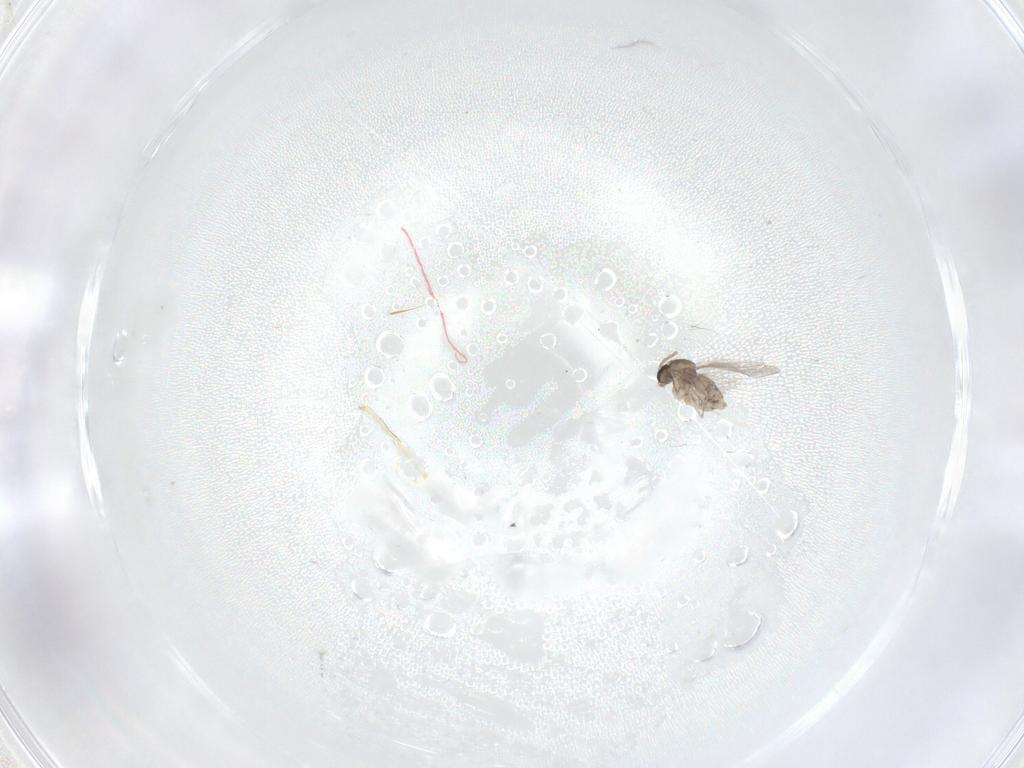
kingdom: Animalia
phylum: Arthropoda
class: Insecta
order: Diptera
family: Cecidomyiidae
